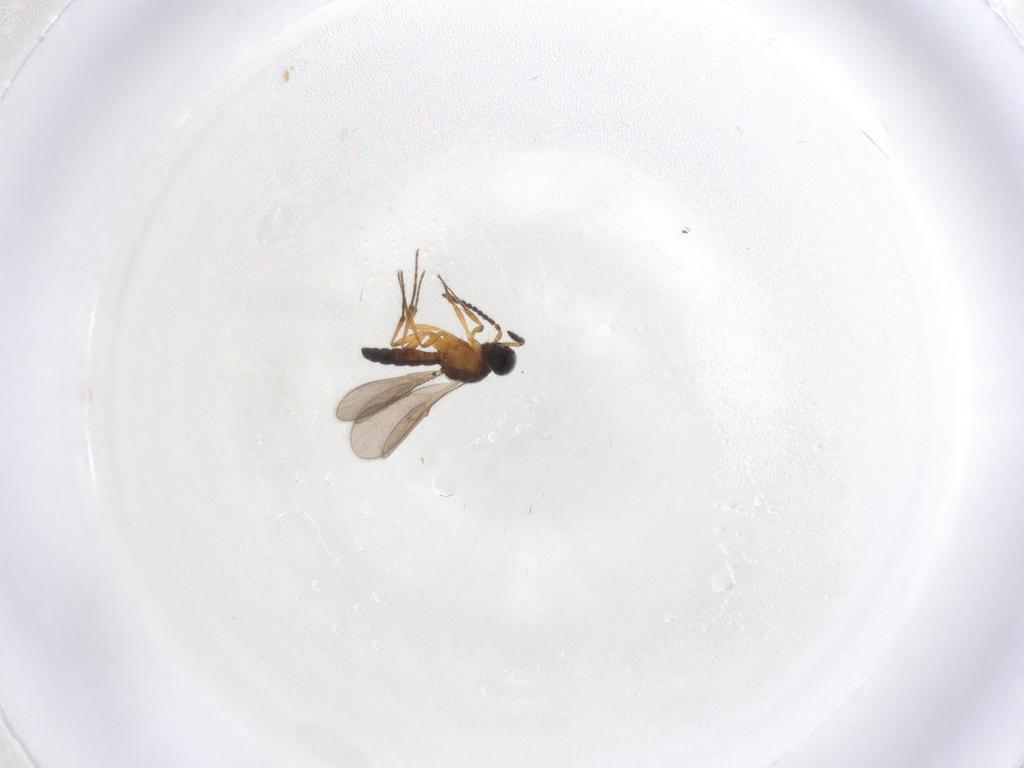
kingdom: Animalia
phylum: Arthropoda
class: Insecta
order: Hymenoptera
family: Scelionidae
